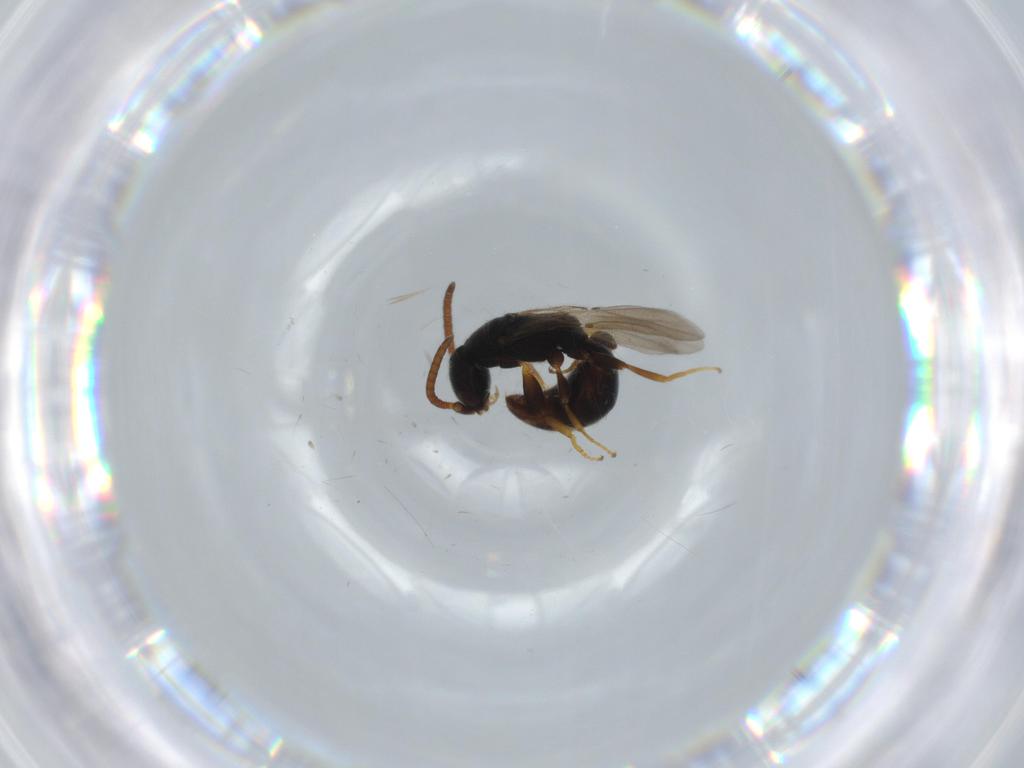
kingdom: Animalia
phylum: Arthropoda
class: Insecta
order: Hymenoptera
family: Bethylidae
